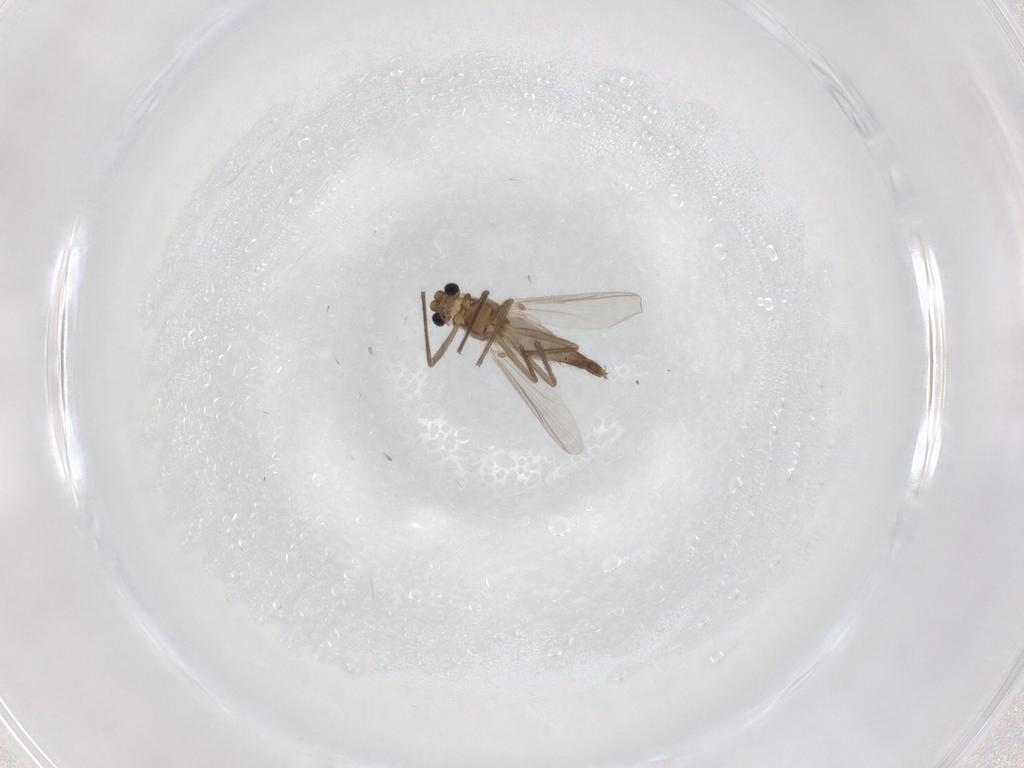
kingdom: Animalia
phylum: Arthropoda
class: Insecta
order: Diptera
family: Chironomidae
